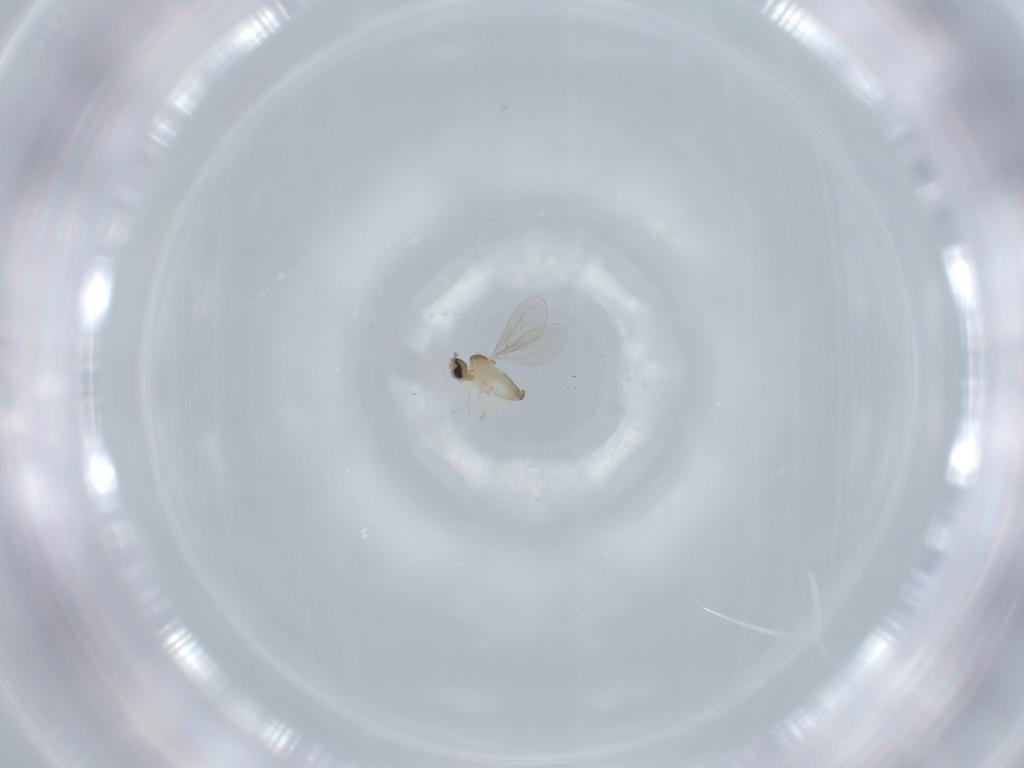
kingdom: Animalia
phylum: Arthropoda
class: Insecta
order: Diptera
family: Cecidomyiidae
